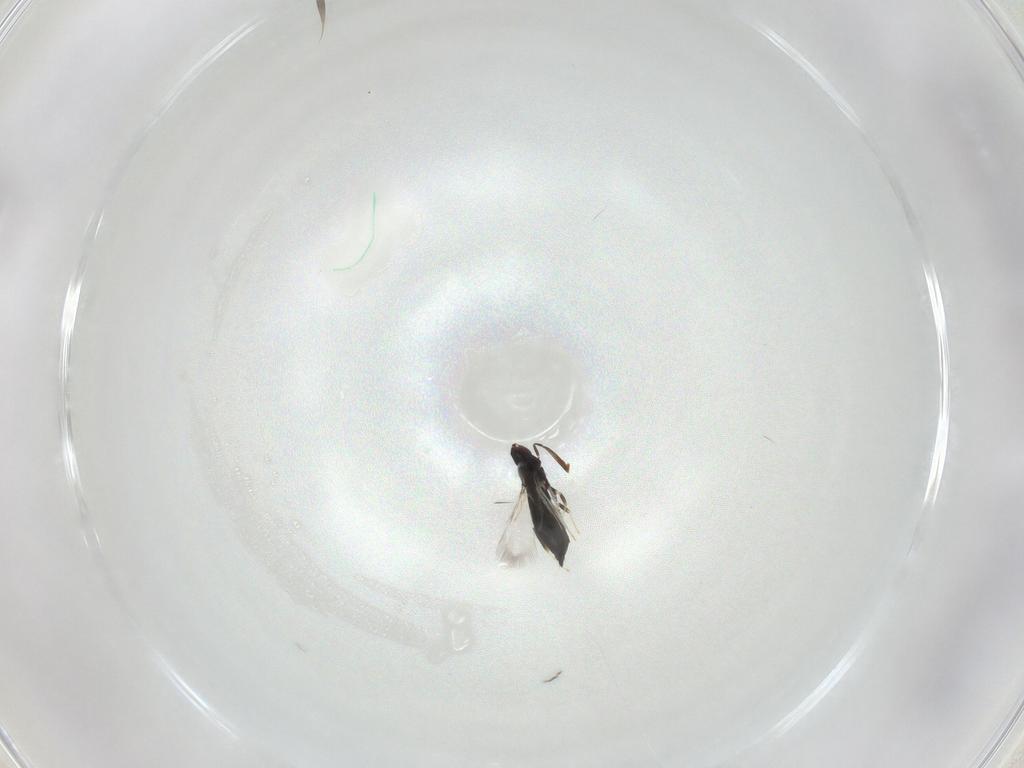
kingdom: Animalia
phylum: Arthropoda
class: Insecta
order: Hymenoptera
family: Signiphoridae
